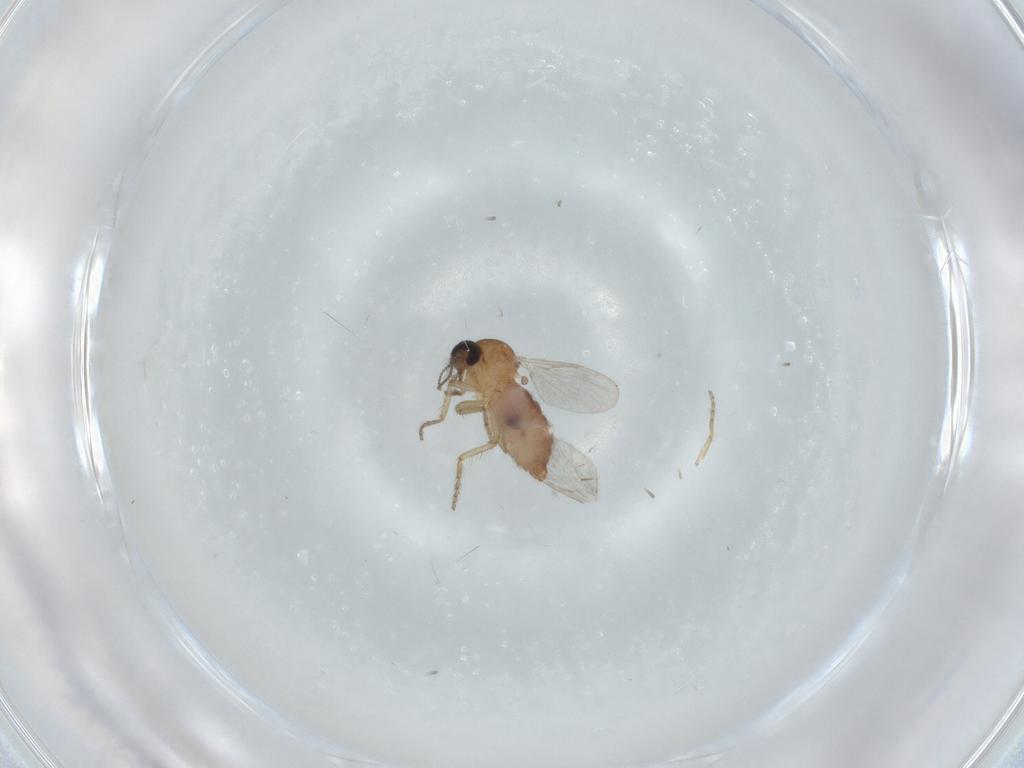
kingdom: Animalia
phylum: Arthropoda
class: Insecta
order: Diptera
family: Ceratopogonidae
